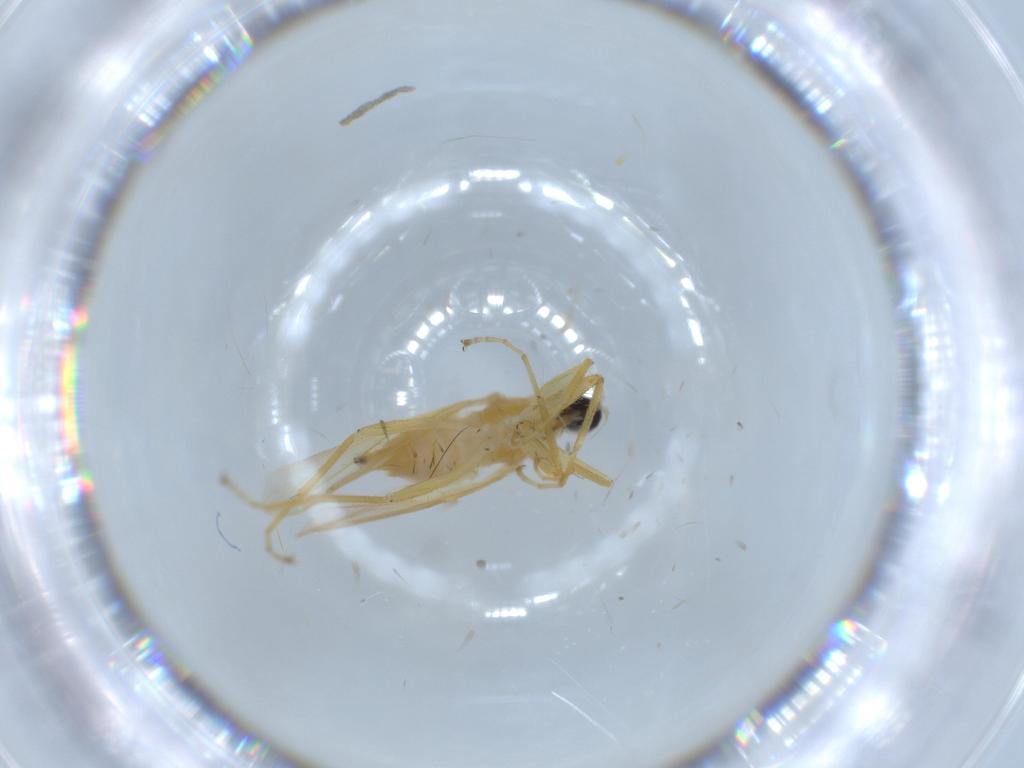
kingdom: Animalia
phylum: Arthropoda
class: Insecta
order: Diptera
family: Hybotidae
